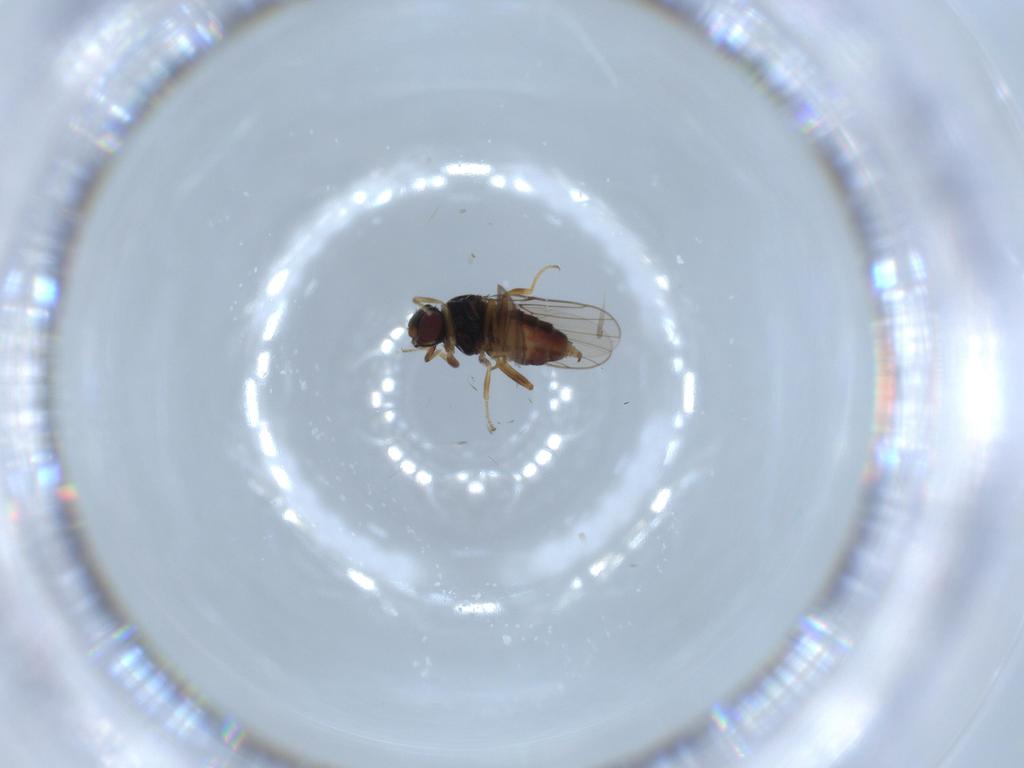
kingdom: Animalia
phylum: Arthropoda
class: Insecta
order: Diptera
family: Chloropidae
